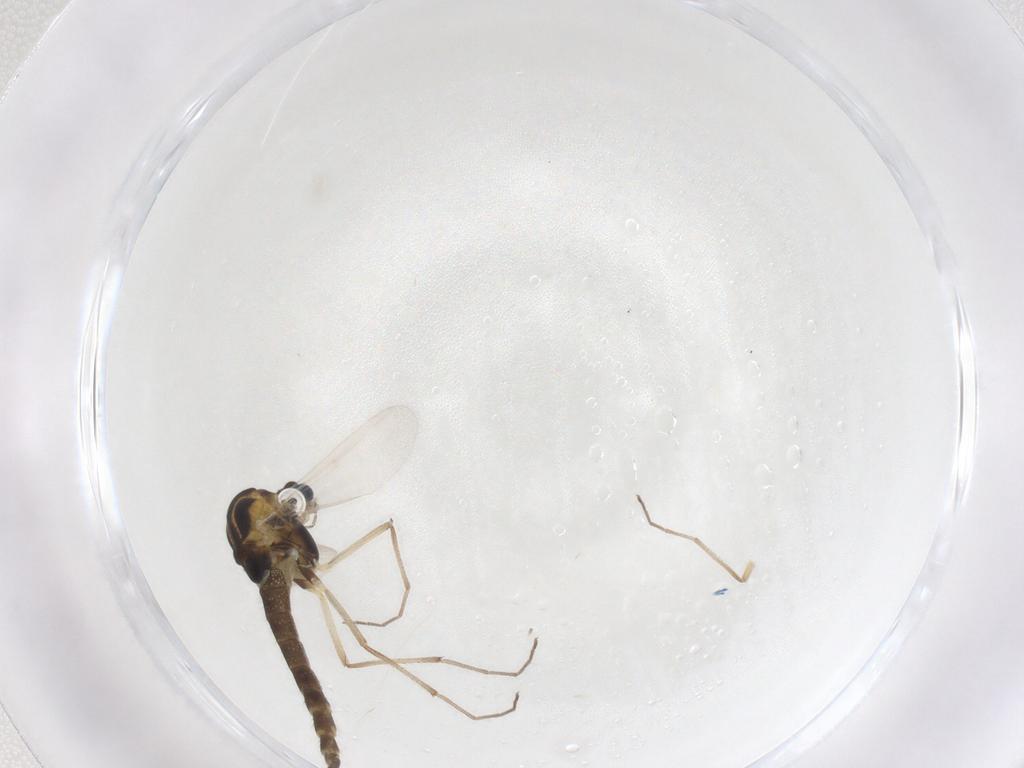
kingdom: Animalia
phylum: Arthropoda
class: Insecta
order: Diptera
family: Chironomidae
